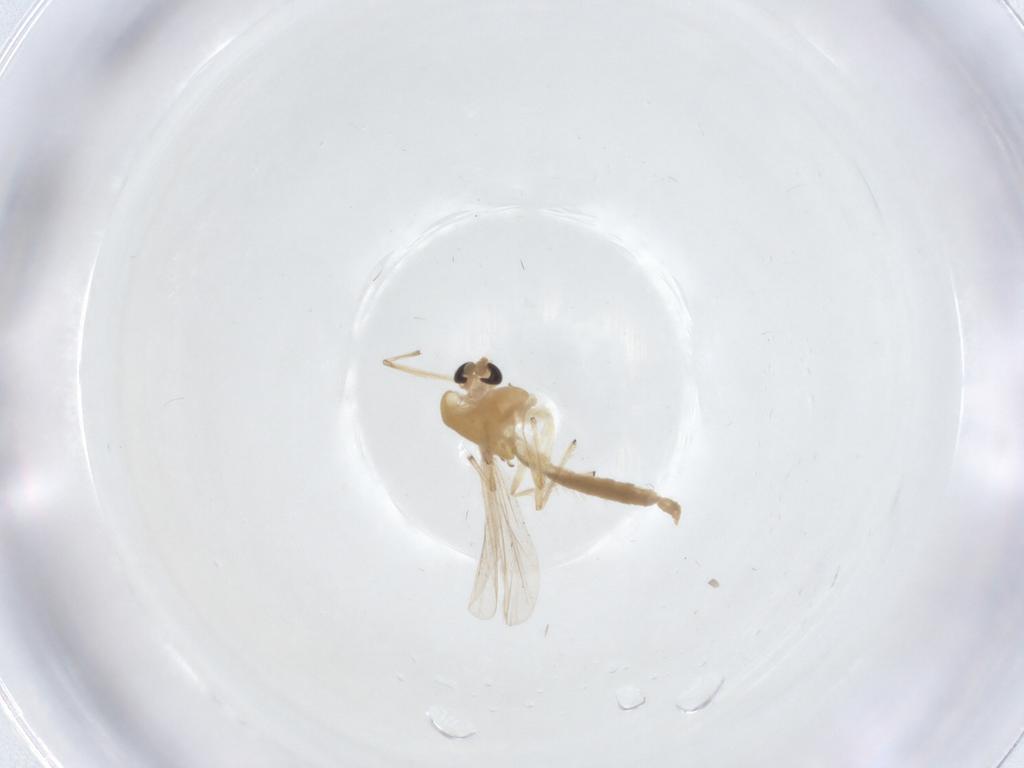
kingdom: Animalia
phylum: Arthropoda
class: Insecta
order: Diptera
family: Chironomidae
